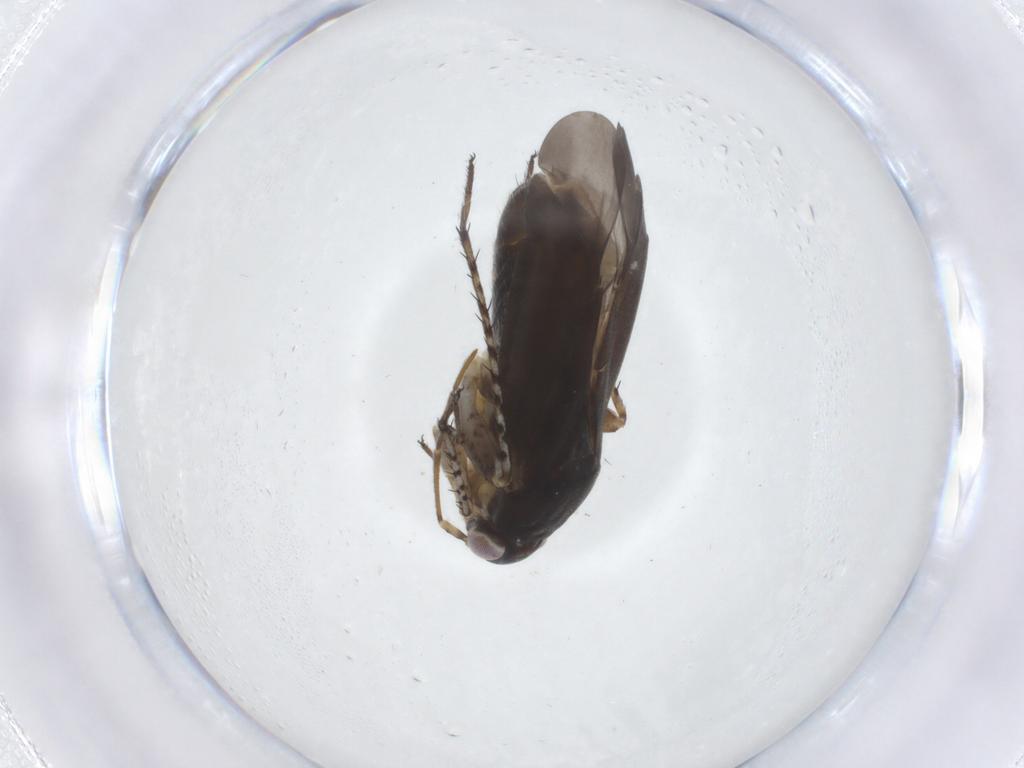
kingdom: Animalia
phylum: Arthropoda
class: Insecta
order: Hemiptera
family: Miridae
